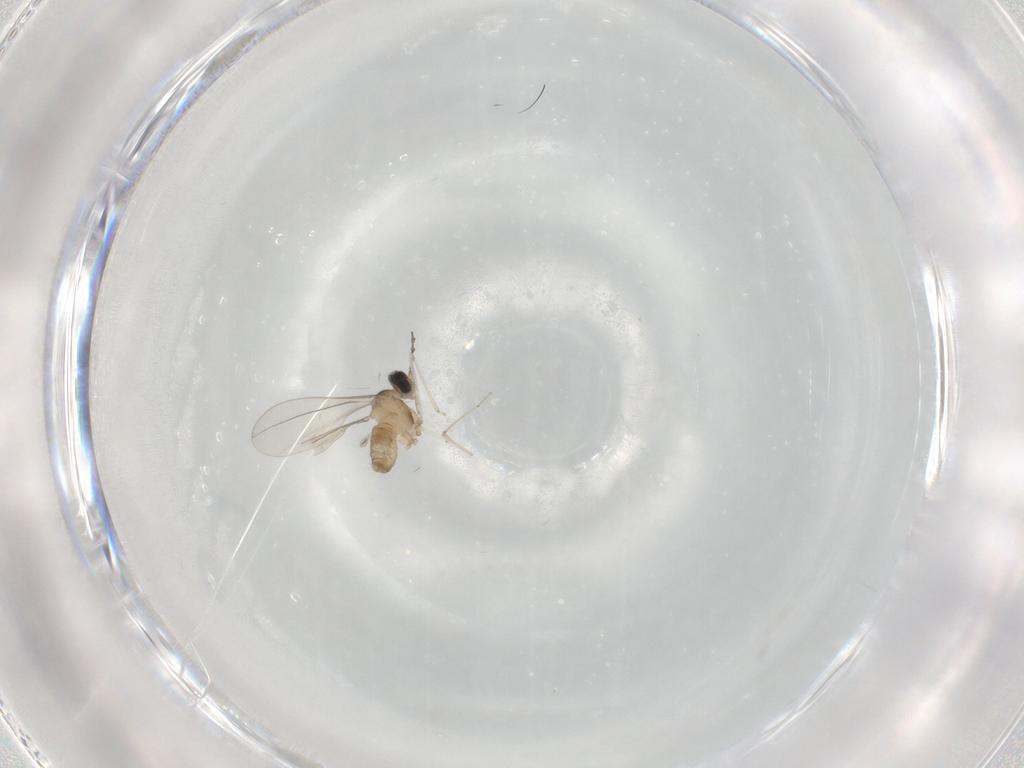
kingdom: Animalia
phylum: Arthropoda
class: Insecta
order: Diptera
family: Cecidomyiidae
